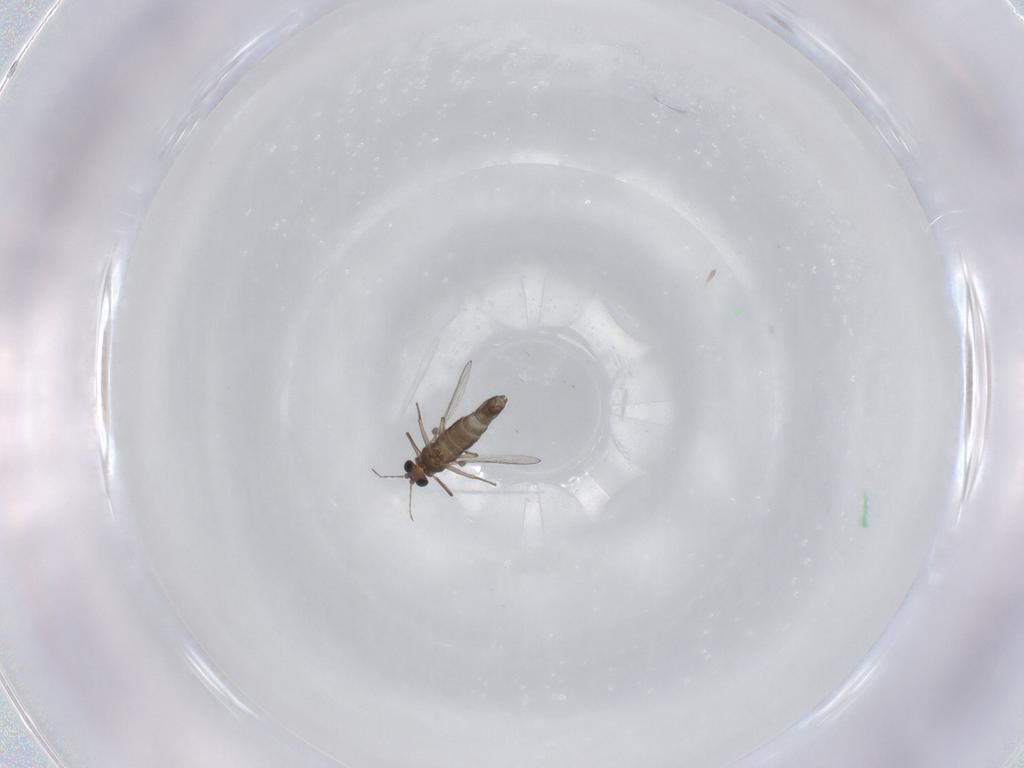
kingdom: Animalia
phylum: Arthropoda
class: Insecta
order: Diptera
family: Chironomidae
